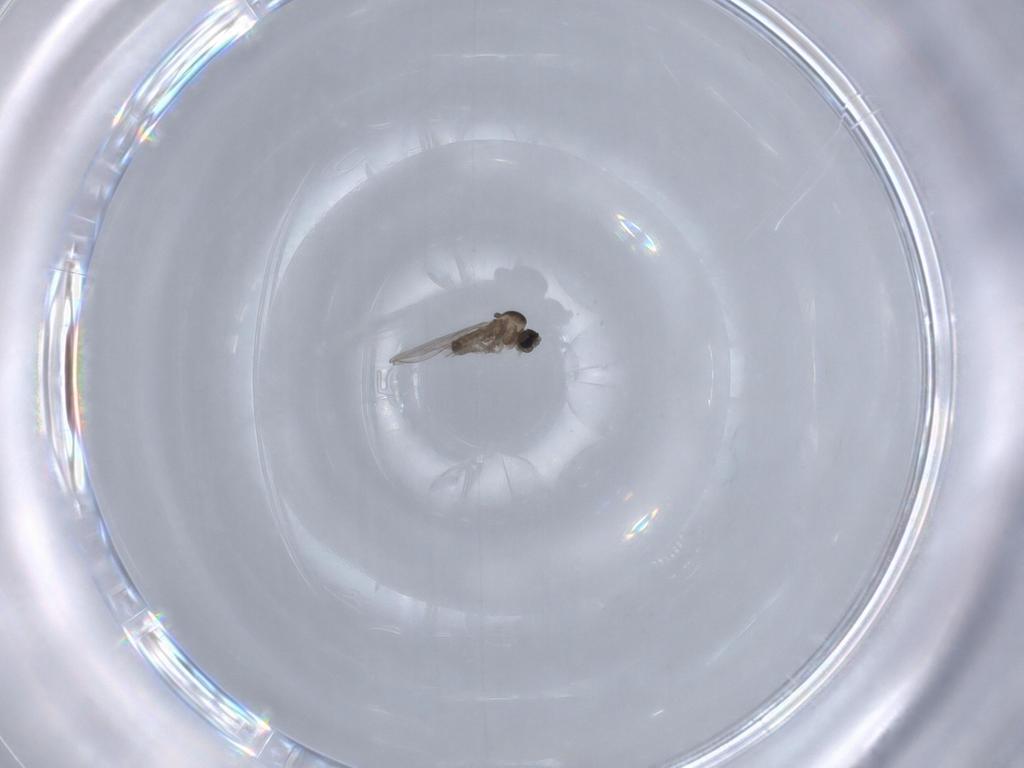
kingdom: Animalia
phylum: Arthropoda
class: Insecta
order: Diptera
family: Cecidomyiidae
